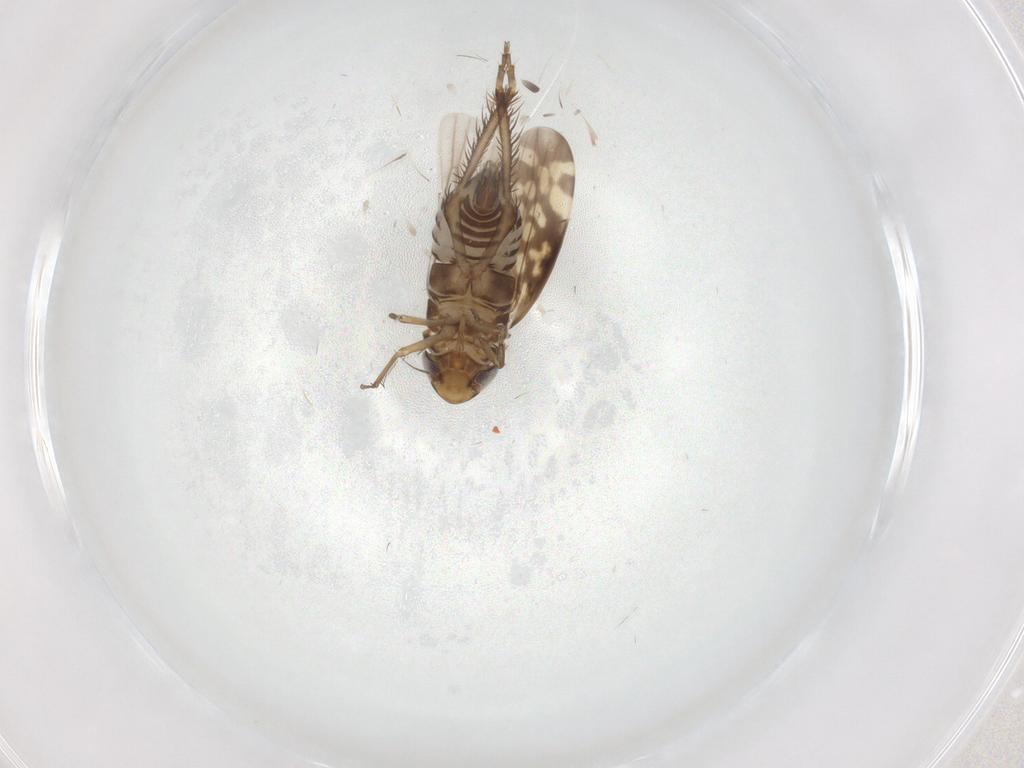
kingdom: Animalia
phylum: Arthropoda
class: Insecta
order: Hemiptera
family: Cicadellidae
